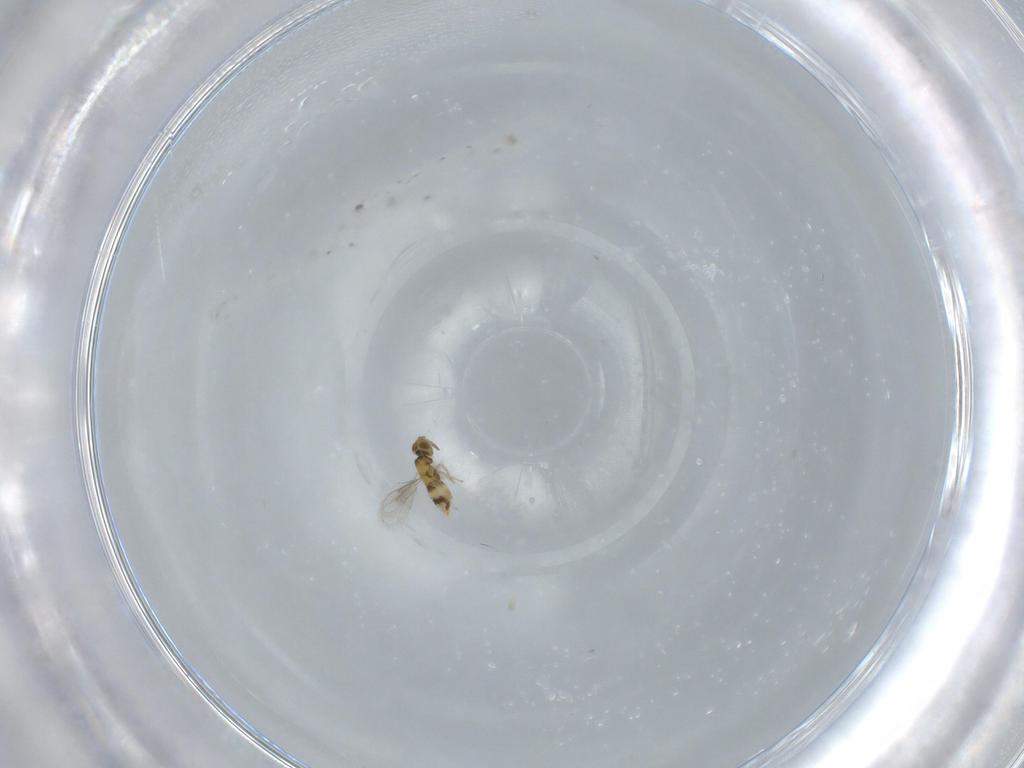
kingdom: Animalia
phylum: Arthropoda
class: Insecta
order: Hymenoptera
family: Aphelinidae
